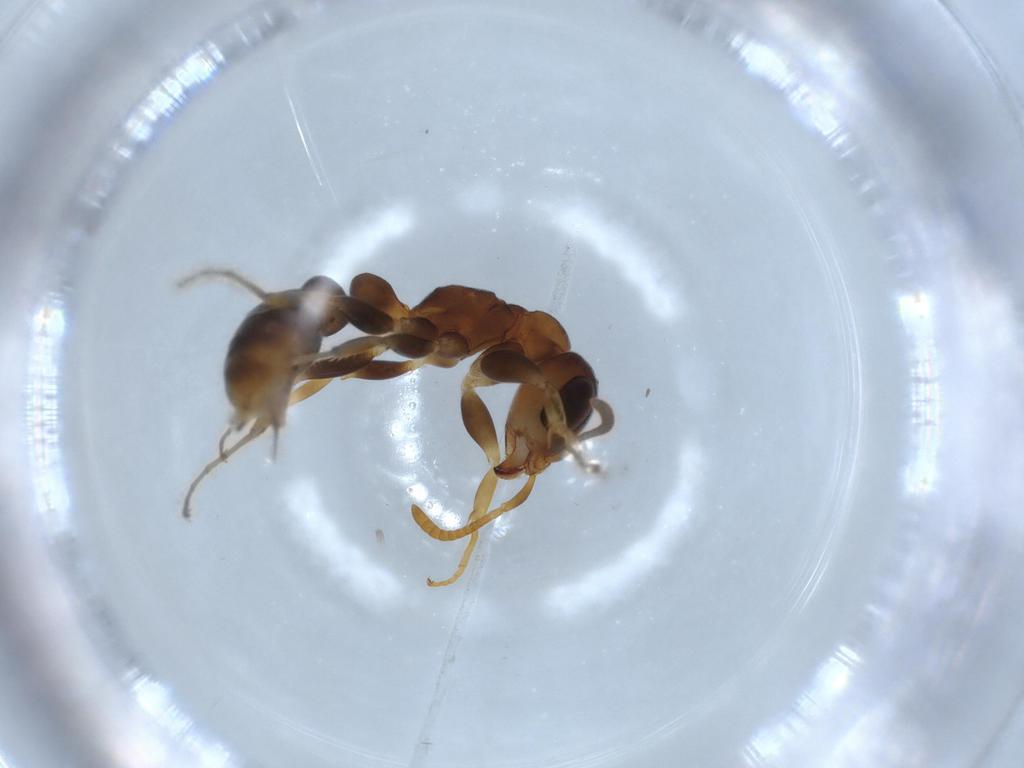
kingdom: Animalia
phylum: Arthropoda
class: Insecta
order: Hymenoptera
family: Formicidae
